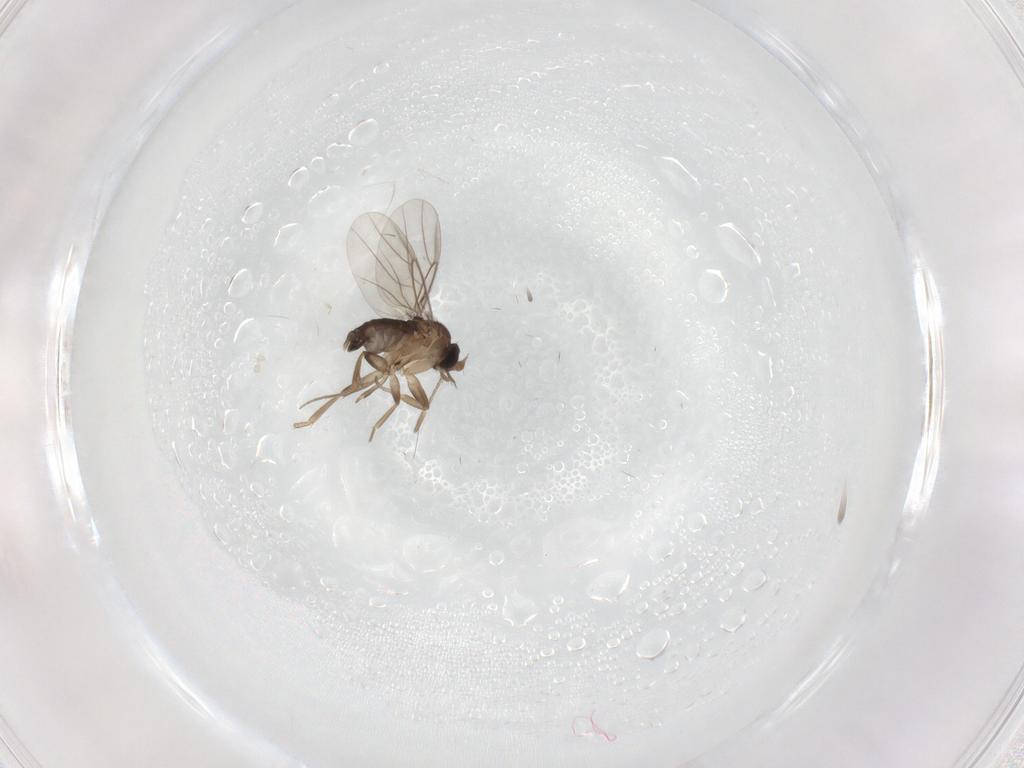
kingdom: Animalia
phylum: Arthropoda
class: Insecta
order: Diptera
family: Phoridae
